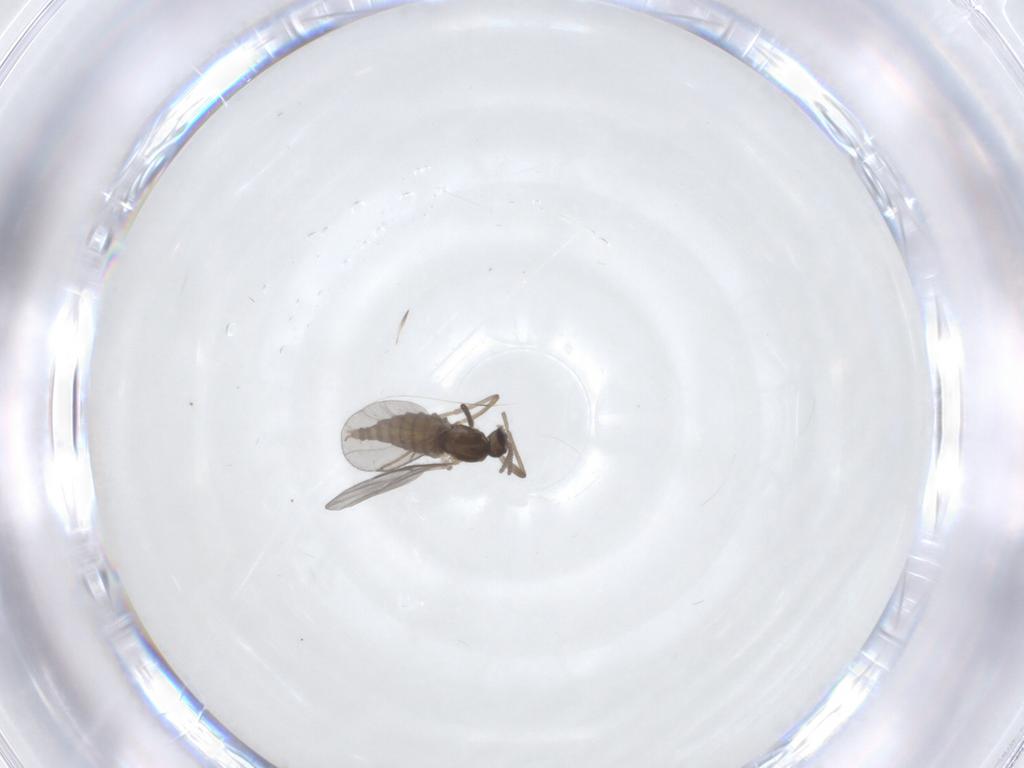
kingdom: Animalia
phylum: Arthropoda
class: Insecta
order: Diptera
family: Cecidomyiidae
